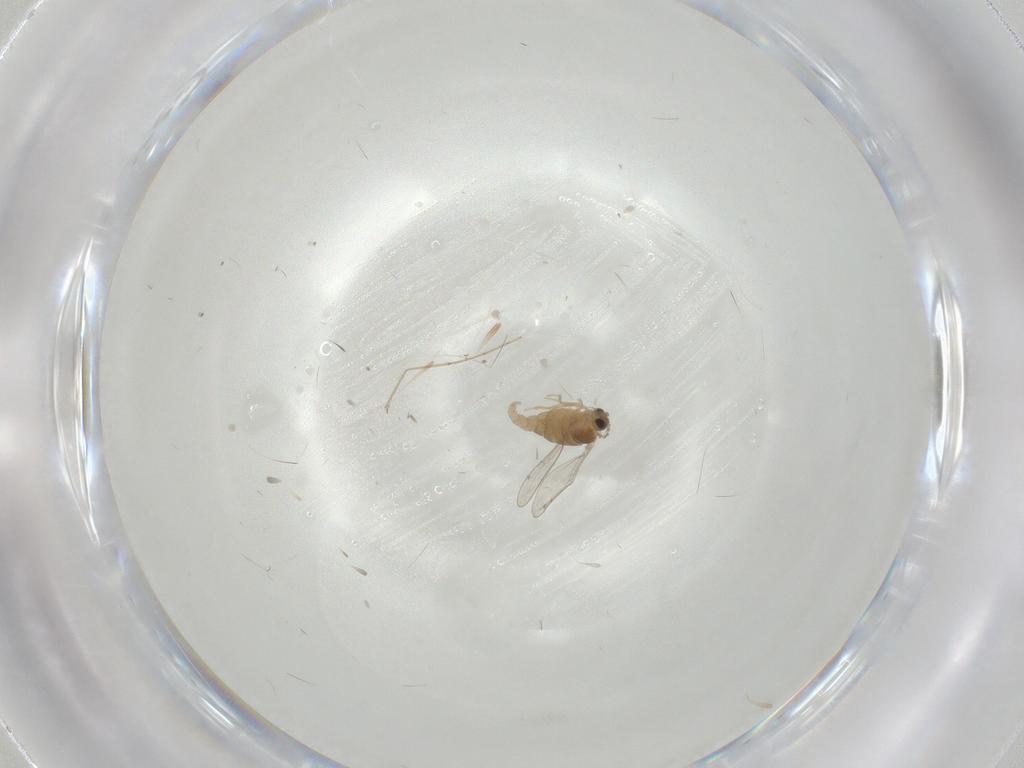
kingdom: Animalia
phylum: Arthropoda
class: Insecta
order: Diptera
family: Cecidomyiidae
